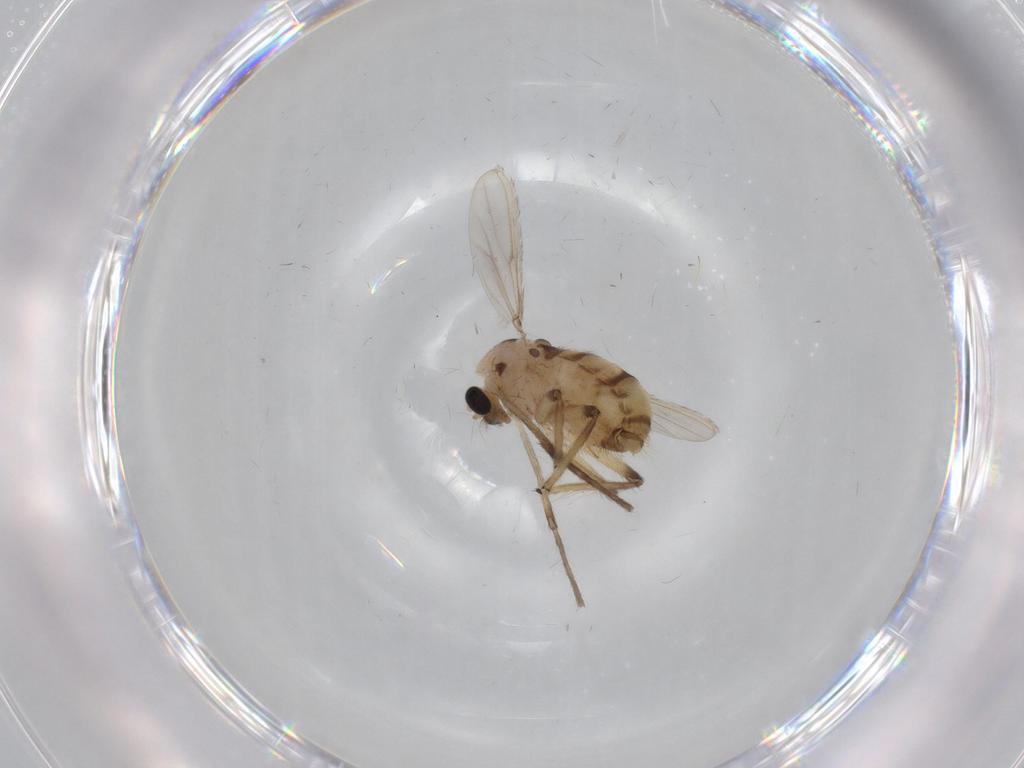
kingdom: Animalia
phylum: Arthropoda
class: Insecta
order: Diptera
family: Chironomidae
